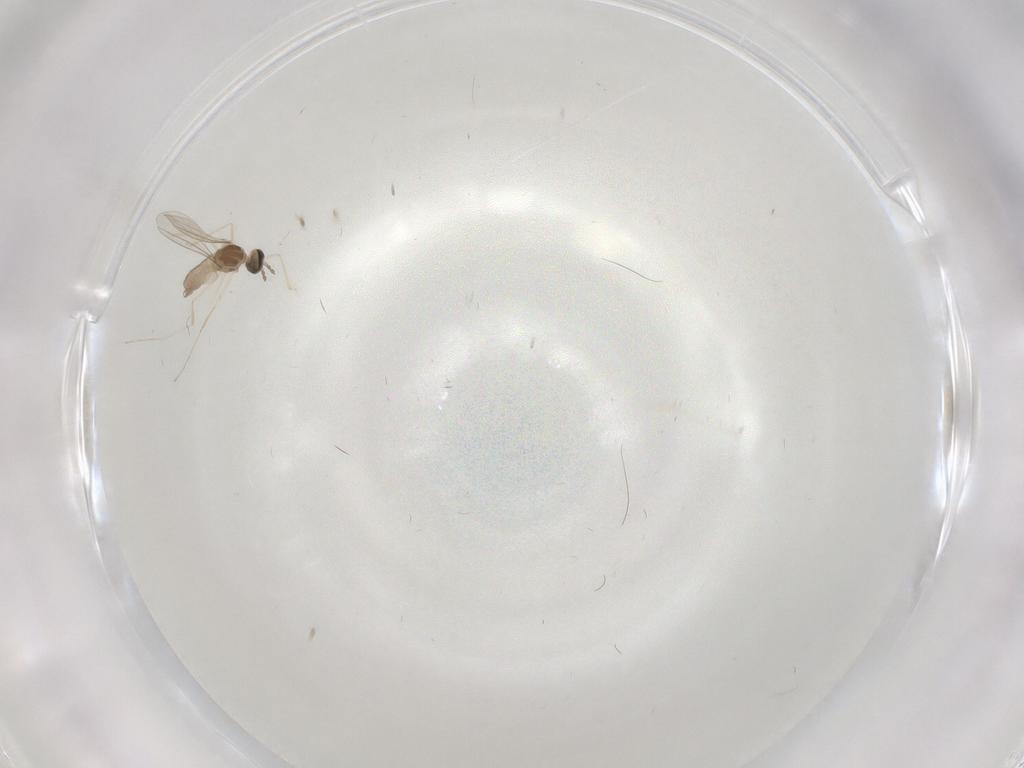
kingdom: Animalia
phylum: Arthropoda
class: Insecta
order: Diptera
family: Cecidomyiidae
